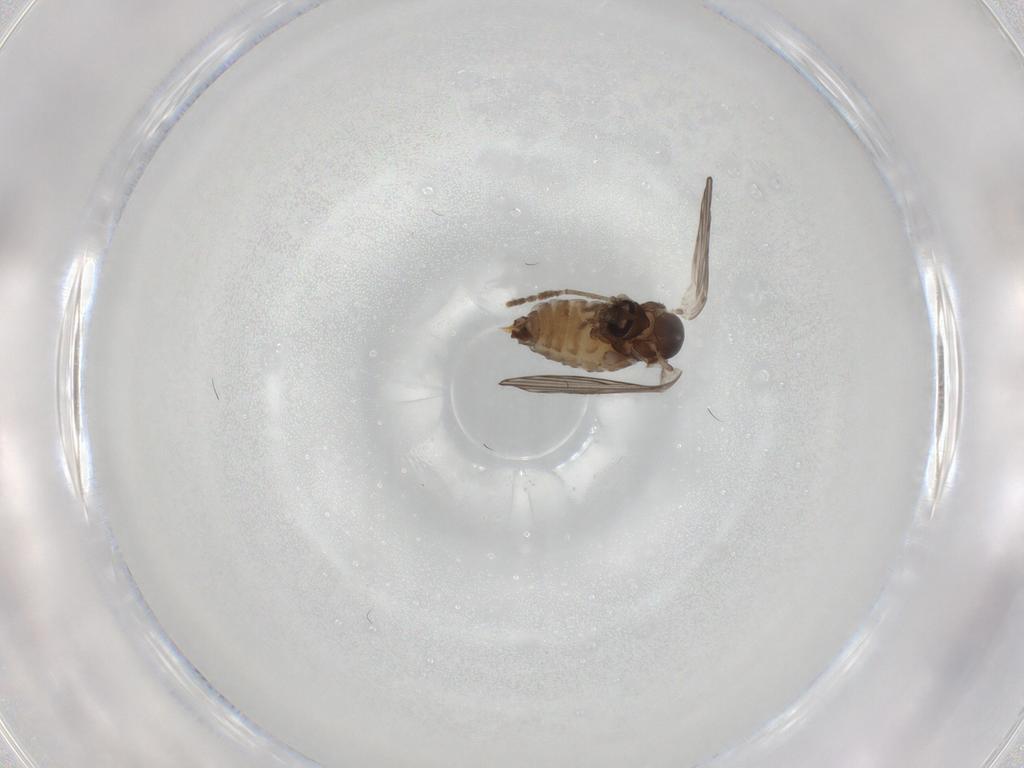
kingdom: Animalia
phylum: Arthropoda
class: Insecta
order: Diptera
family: Psychodidae
